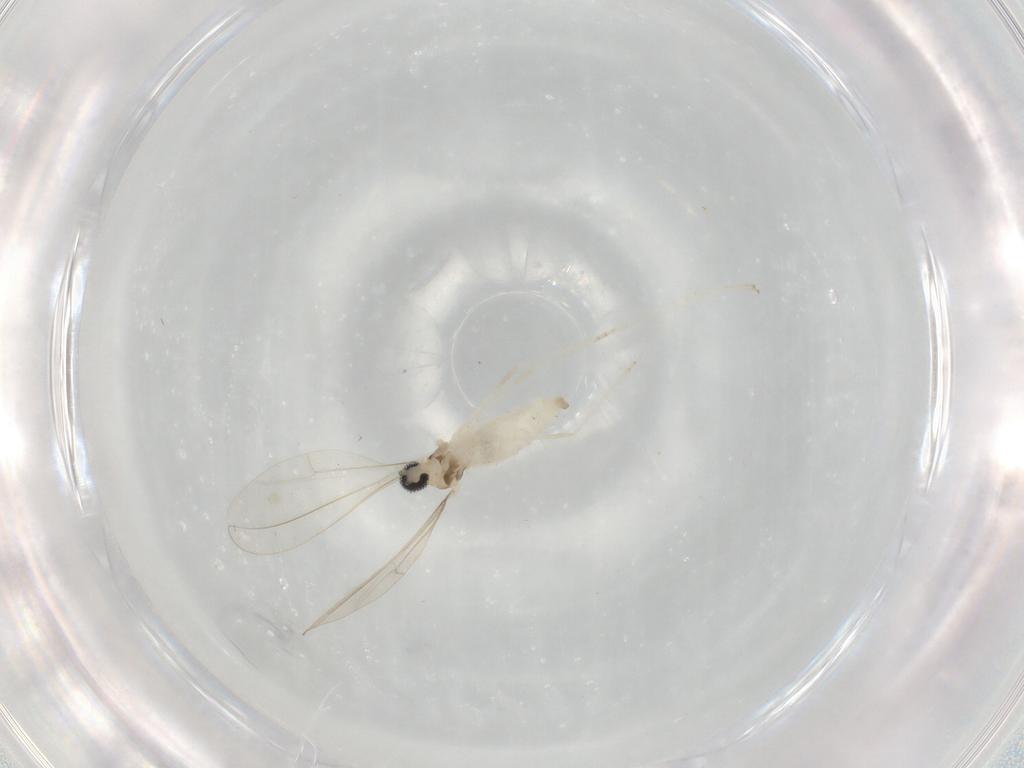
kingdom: Animalia
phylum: Arthropoda
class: Insecta
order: Diptera
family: Cecidomyiidae
